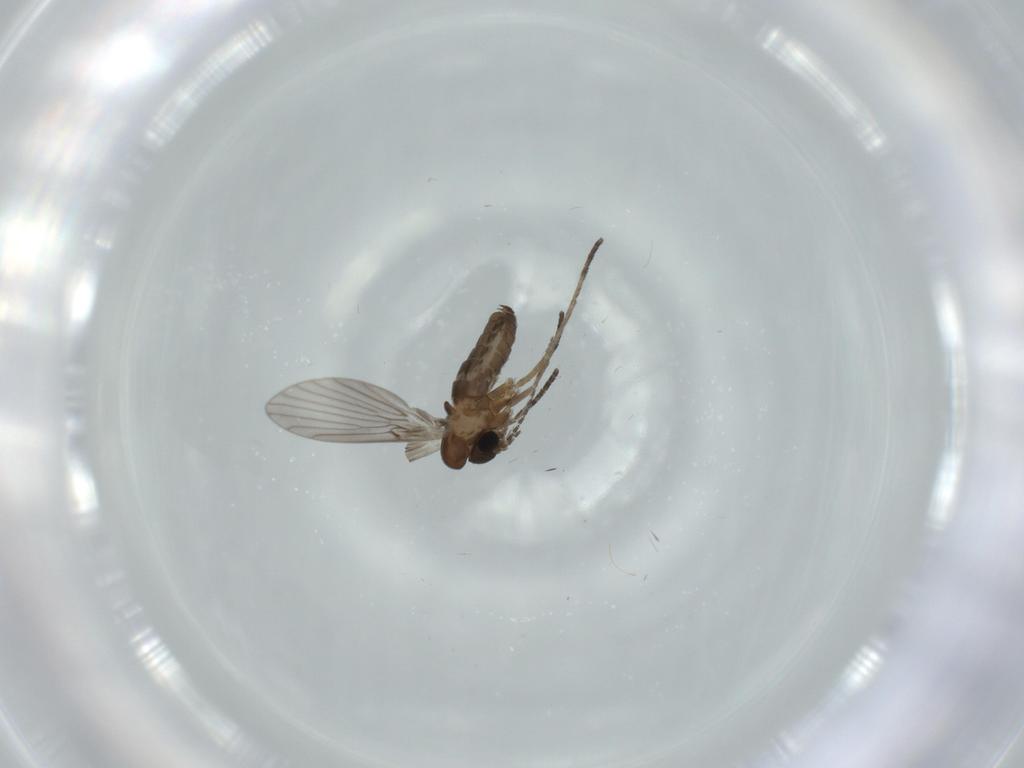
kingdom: Animalia
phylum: Arthropoda
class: Insecta
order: Diptera
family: Psychodidae
